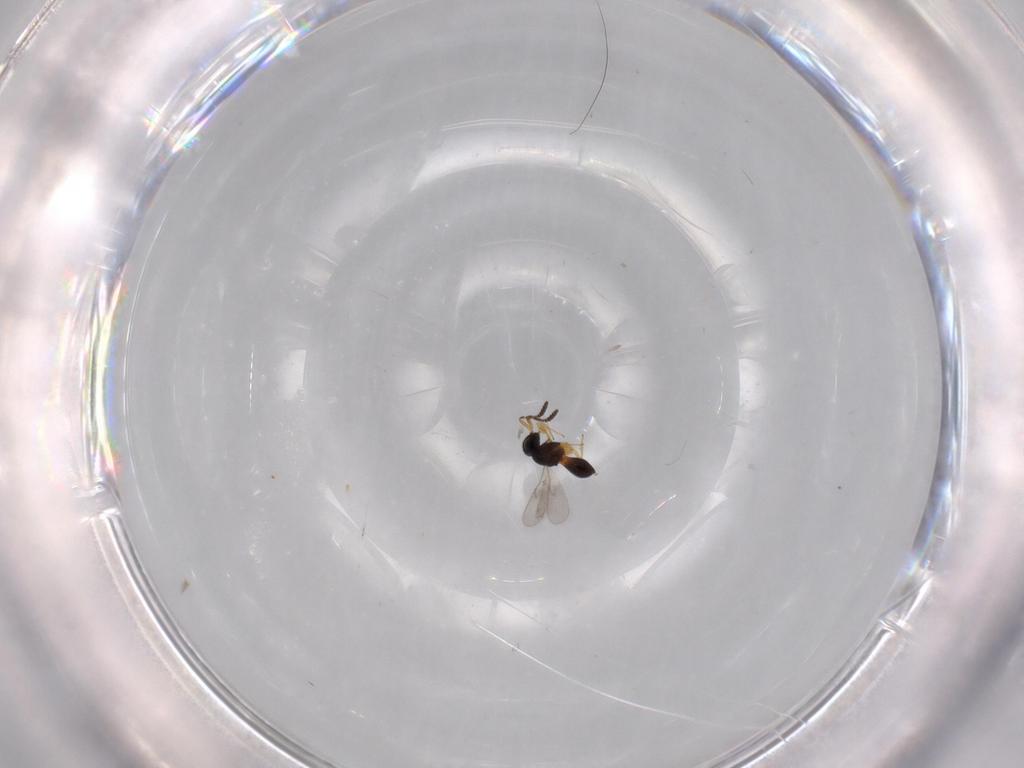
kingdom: Animalia
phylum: Arthropoda
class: Insecta
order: Hymenoptera
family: Scelionidae
